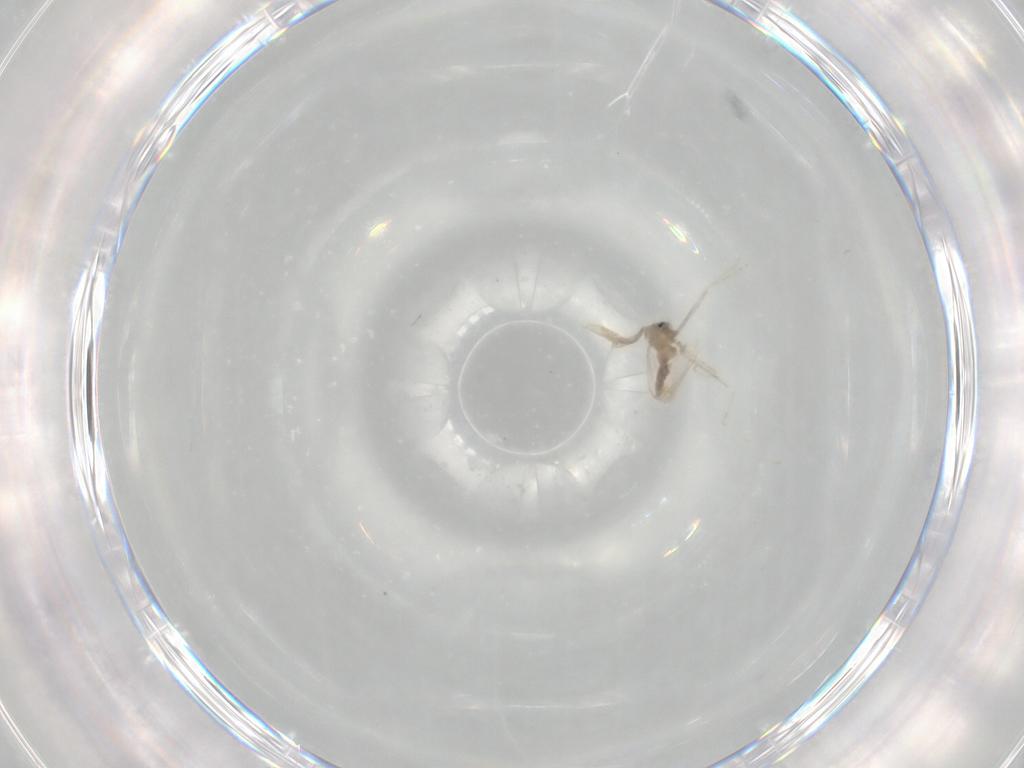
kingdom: Animalia
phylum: Arthropoda
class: Insecta
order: Diptera
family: Cecidomyiidae
